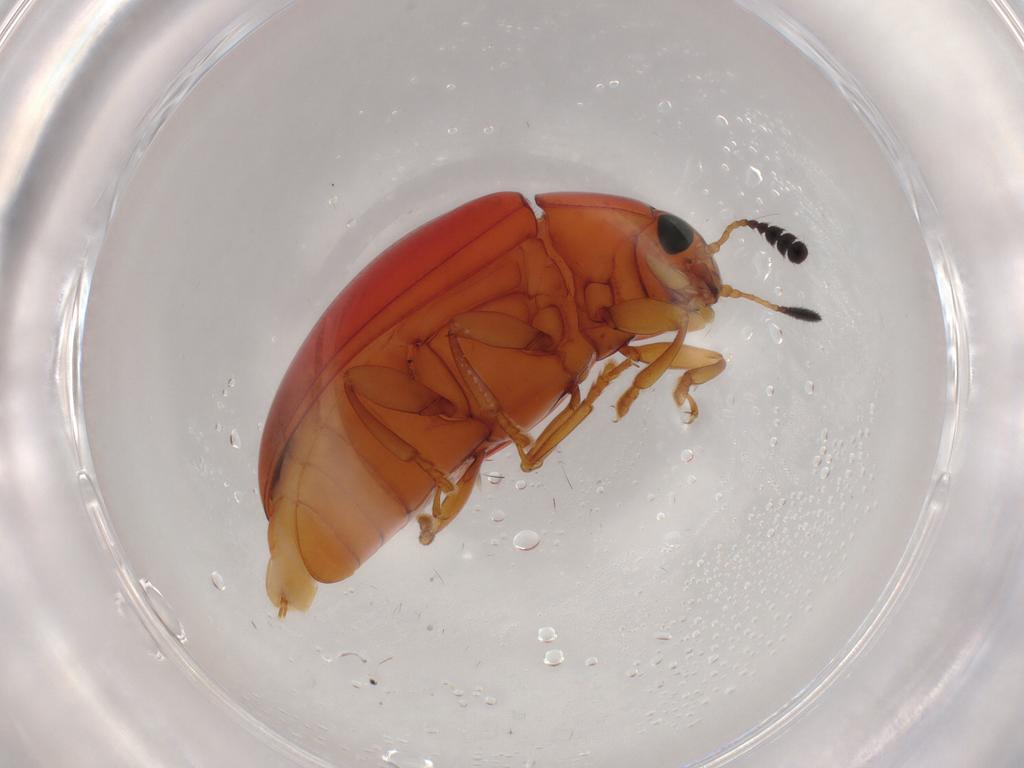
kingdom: Animalia
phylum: Arthropoda
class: Insecta
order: Coleoptera
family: Erotylidae
